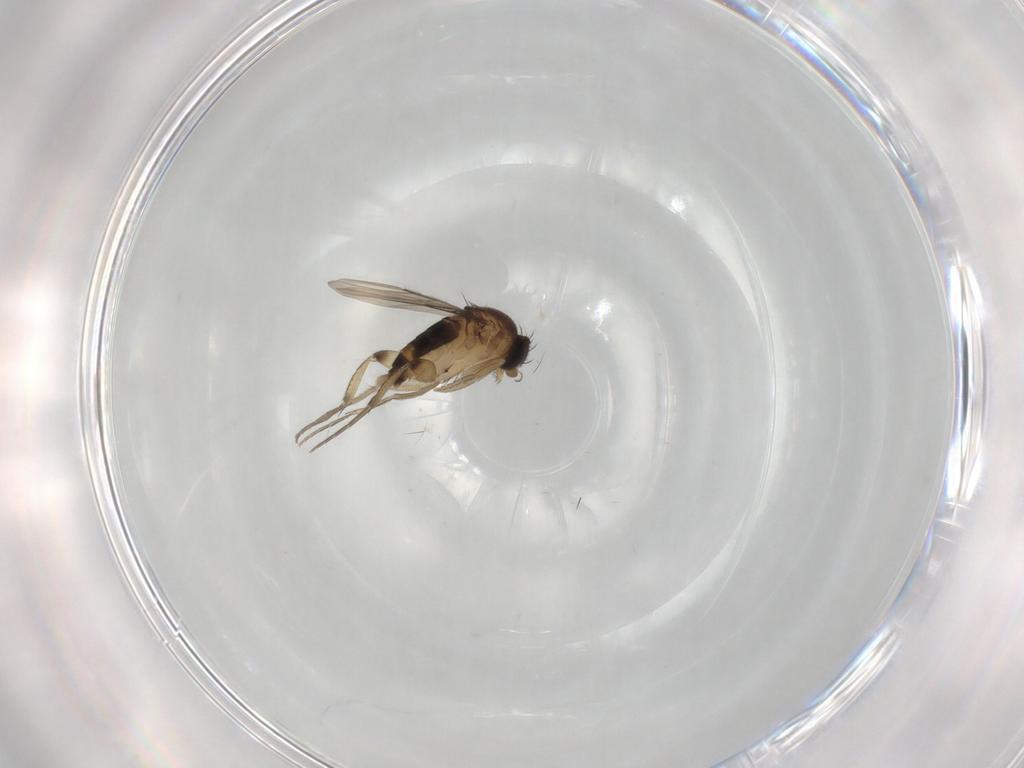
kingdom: Animalia
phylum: Arthropoda
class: Insecta
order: Diptera
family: Phoridae
